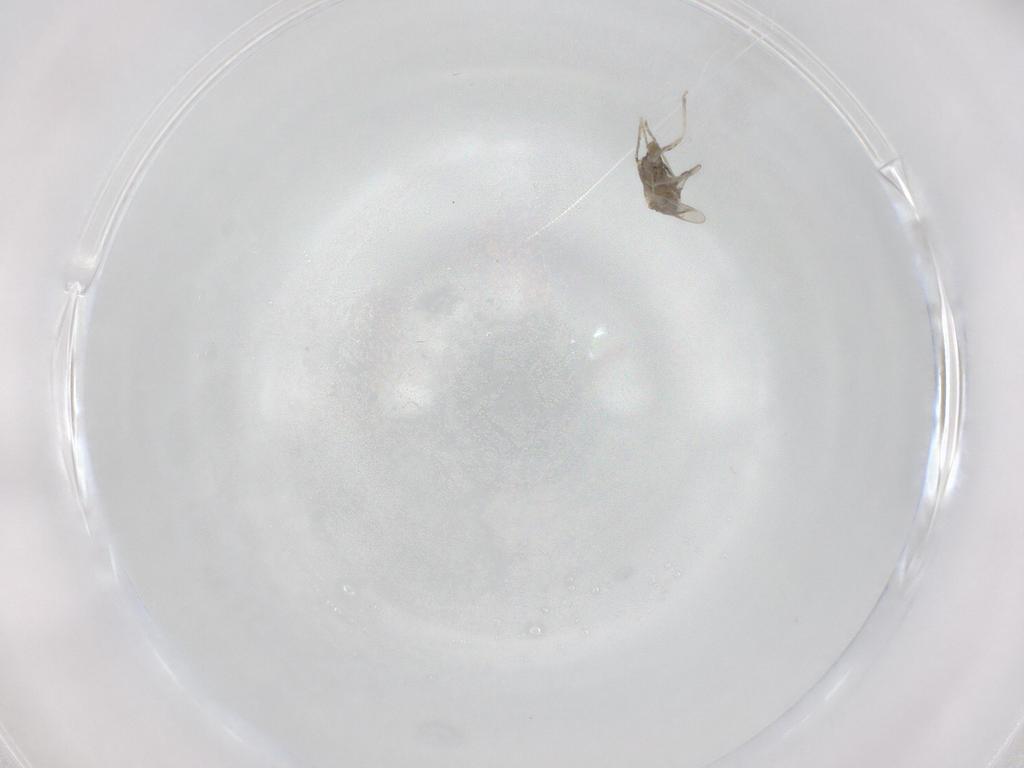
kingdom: Animalia
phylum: Arthropoda
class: Insecta
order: Diptera
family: Cecidomyiidae
